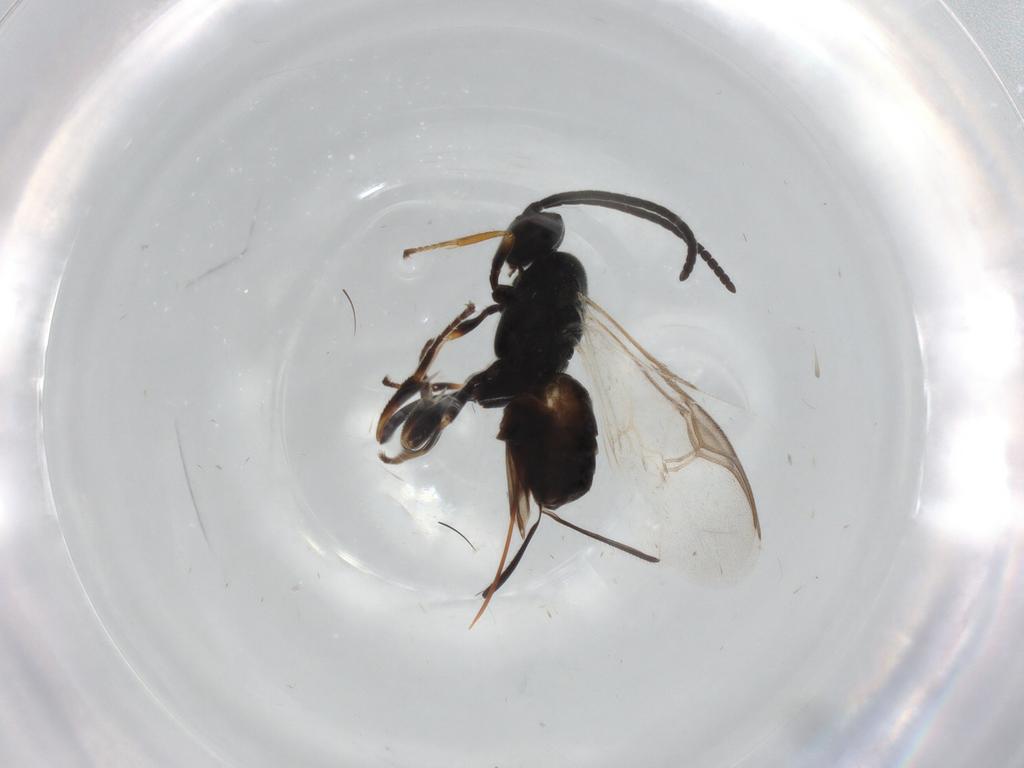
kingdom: Animalia
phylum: Arthropoda
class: Insecta
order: Hymenoptera
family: Braconidae
